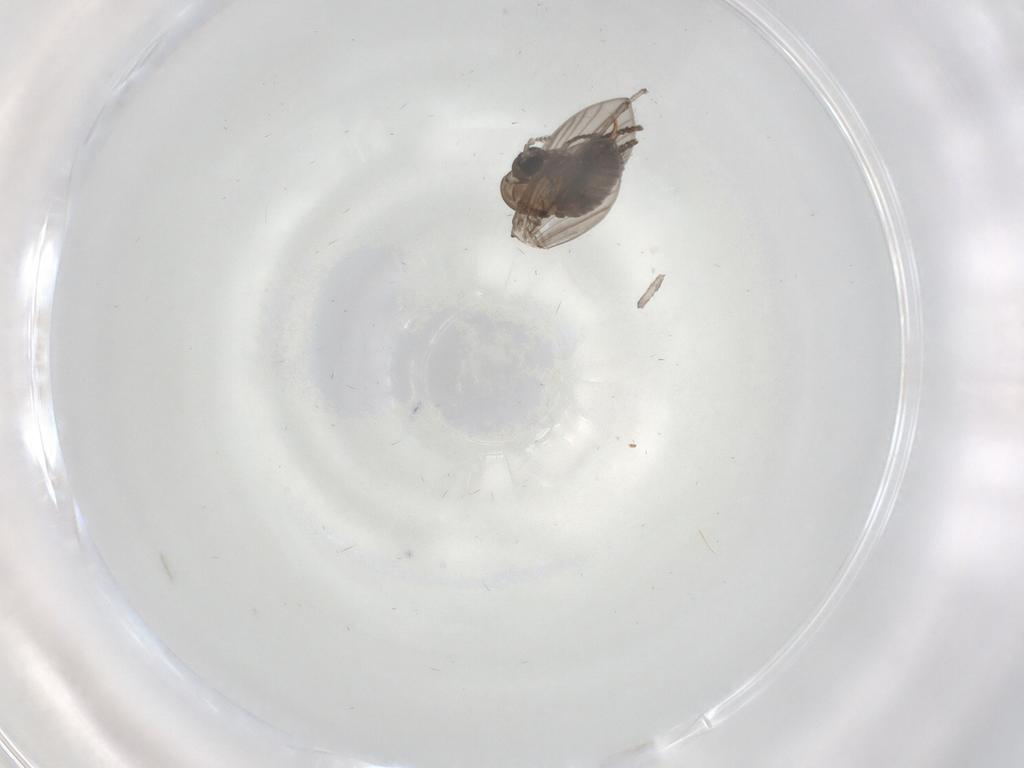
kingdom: Animalia
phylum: Arthropoda
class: Insecta
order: Diptera
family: Psychodidae
